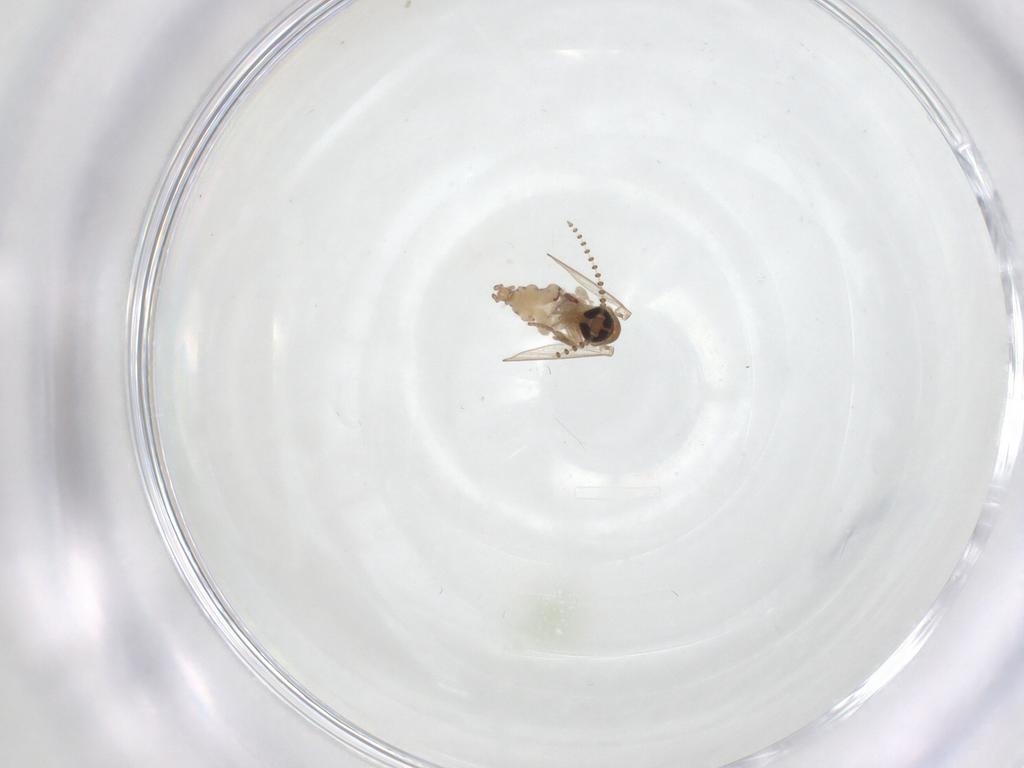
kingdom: Animalia
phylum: Arthropoda
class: Insecta
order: Diptera
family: Psychodidae
